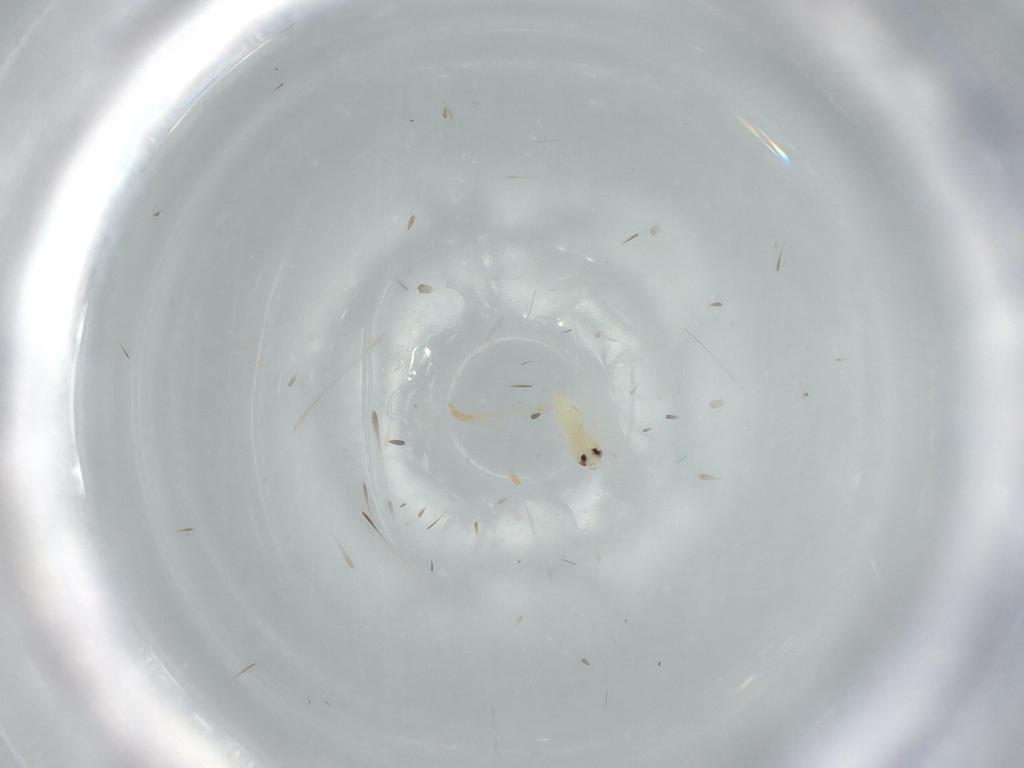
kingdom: Animalia
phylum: Arthropoda
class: Insecta
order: Hemiptera
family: Aleyrodidae
